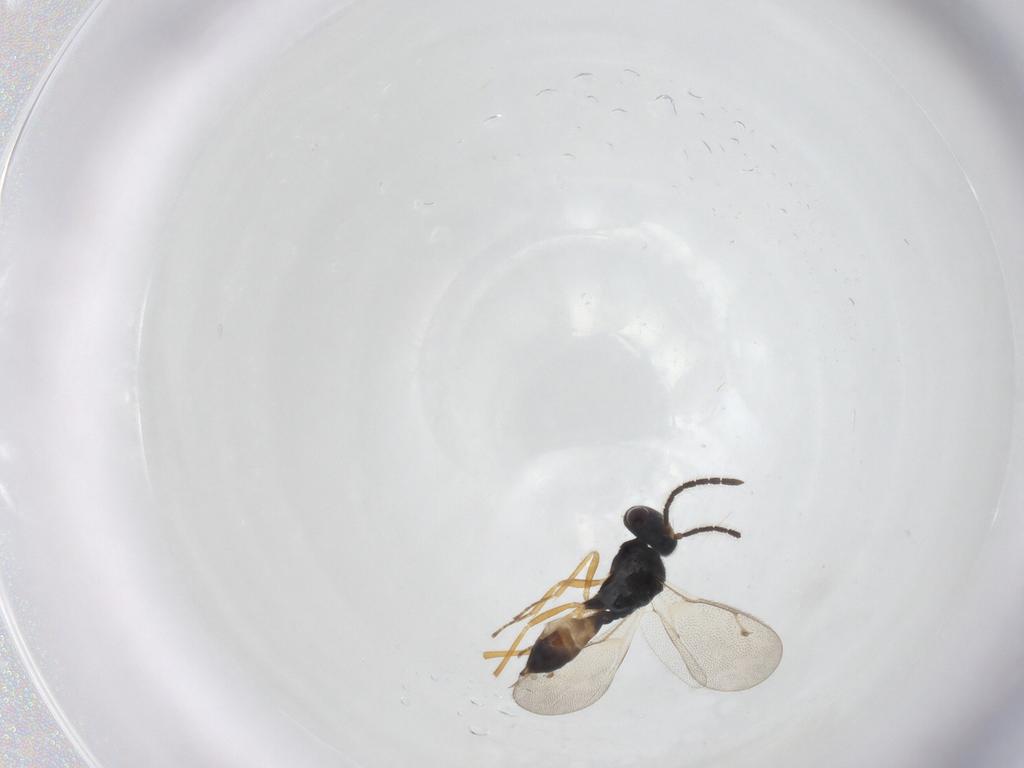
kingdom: Animalia
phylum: Arthropoda
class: Insecta
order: Hymenoptera
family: Pteromalidae
